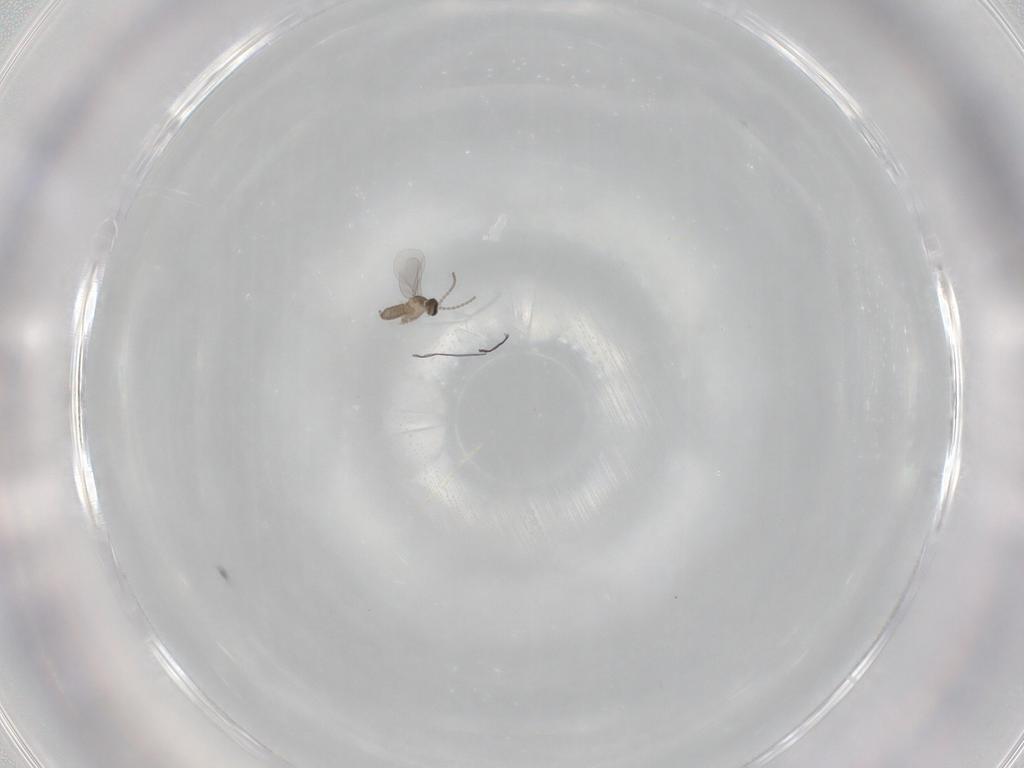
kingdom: Animalia
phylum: Arthropoda
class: Insecta
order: Diptera
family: Cecidomyiidae
